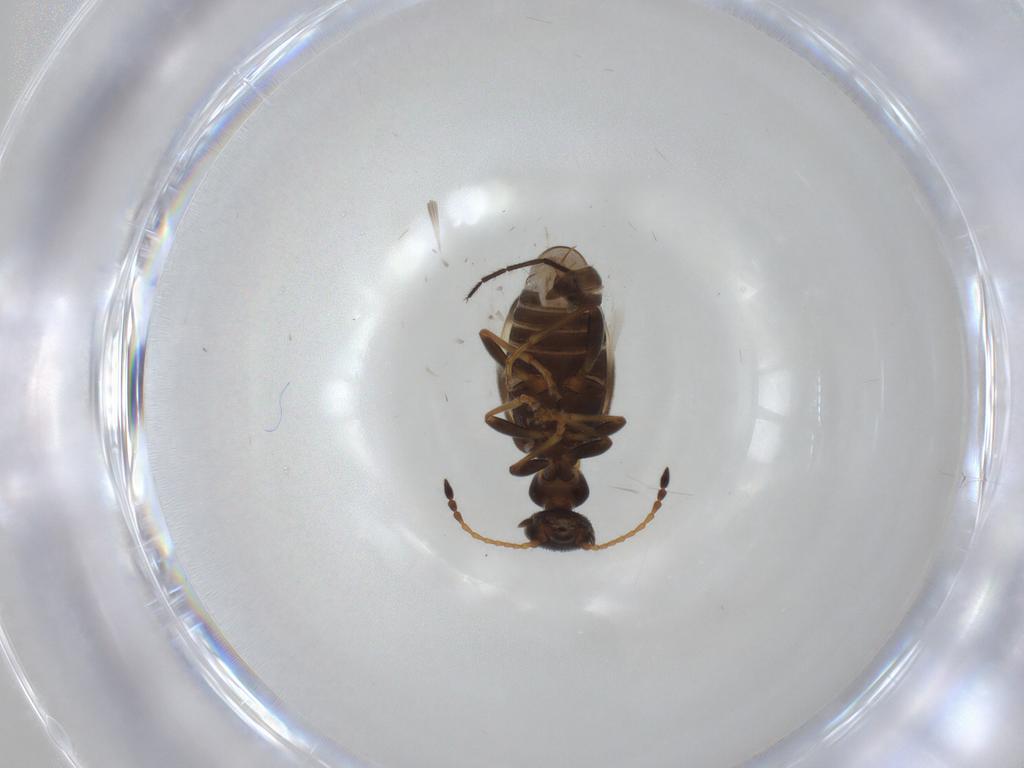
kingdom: Animalia
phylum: Arthropoda
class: Insecta
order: Coleoptera
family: Anthicidae
